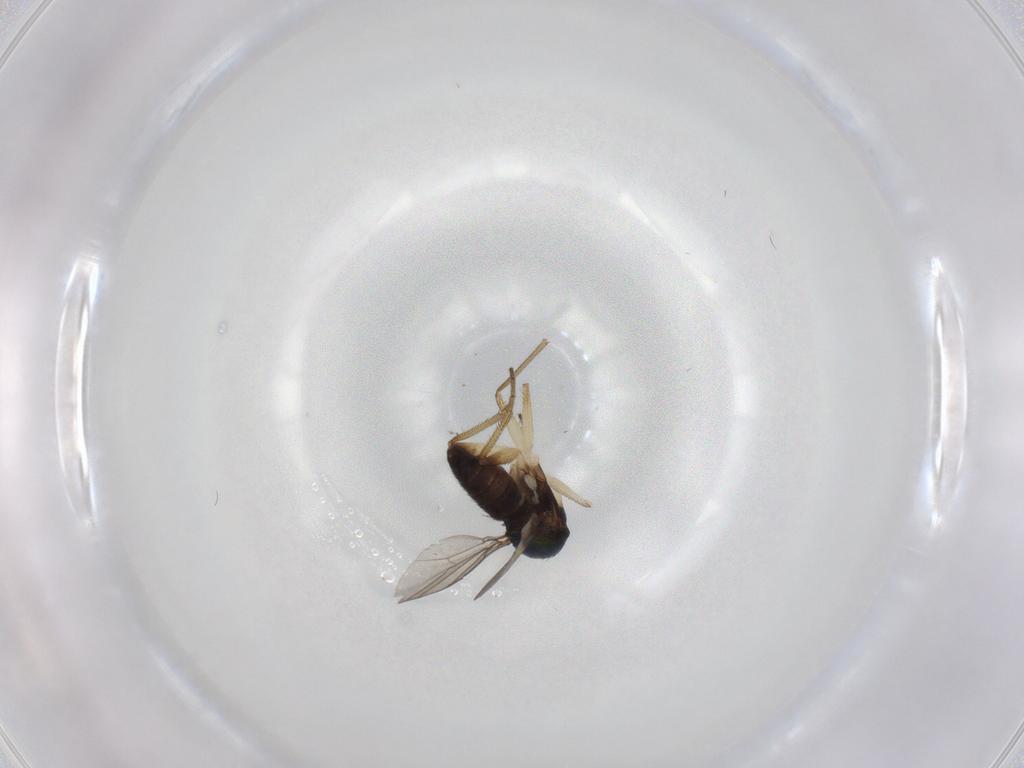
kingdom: Animalia
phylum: Arthropoda
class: Insecta
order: Diptera
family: Dolichopodidae
